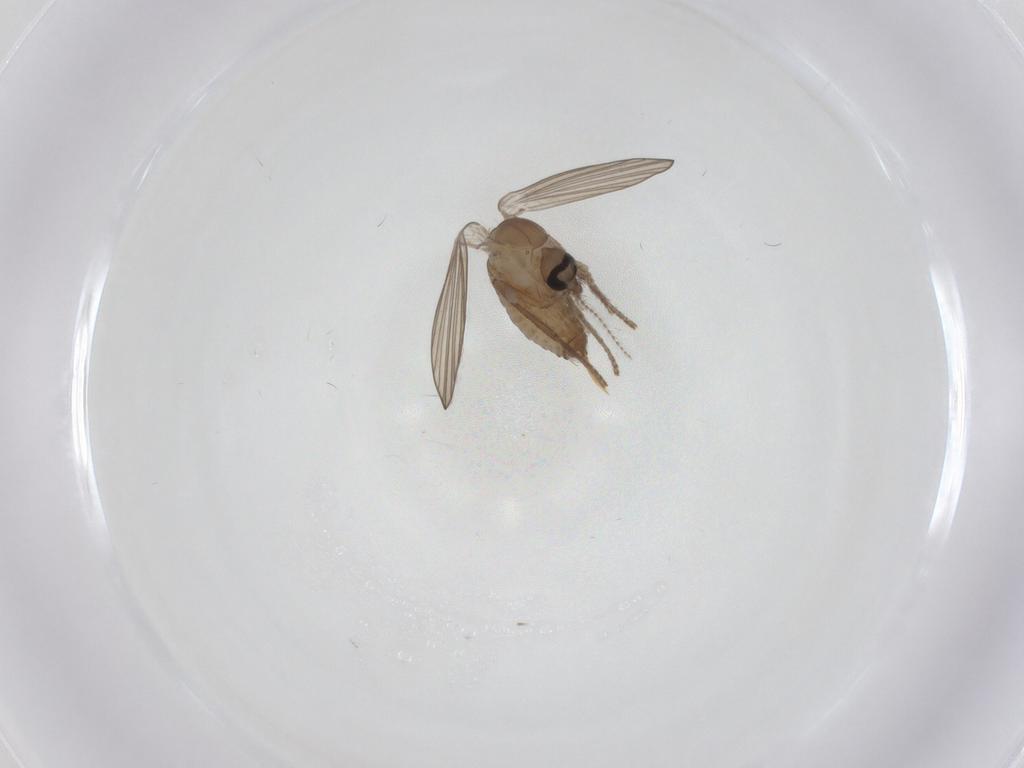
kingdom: Animalia
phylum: Arthropoda
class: Insecta
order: Diptera
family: Psychodidae
